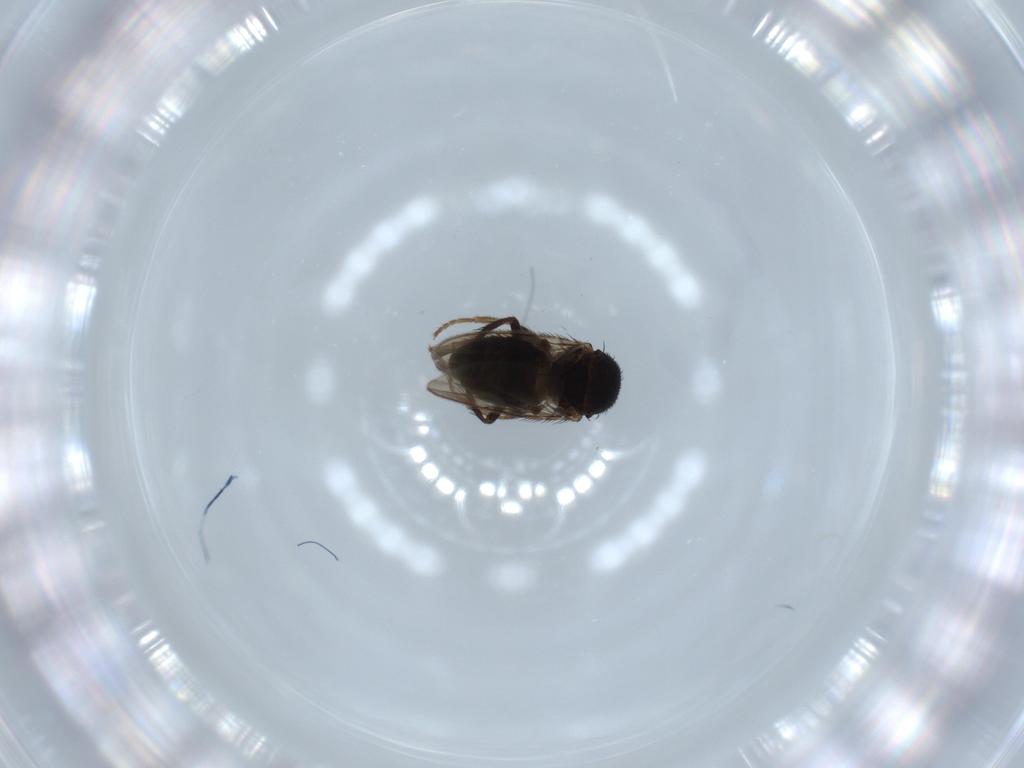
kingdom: Animalia
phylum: Arthropoda
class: Insecta
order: Diptera
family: Sphaeroceridae
